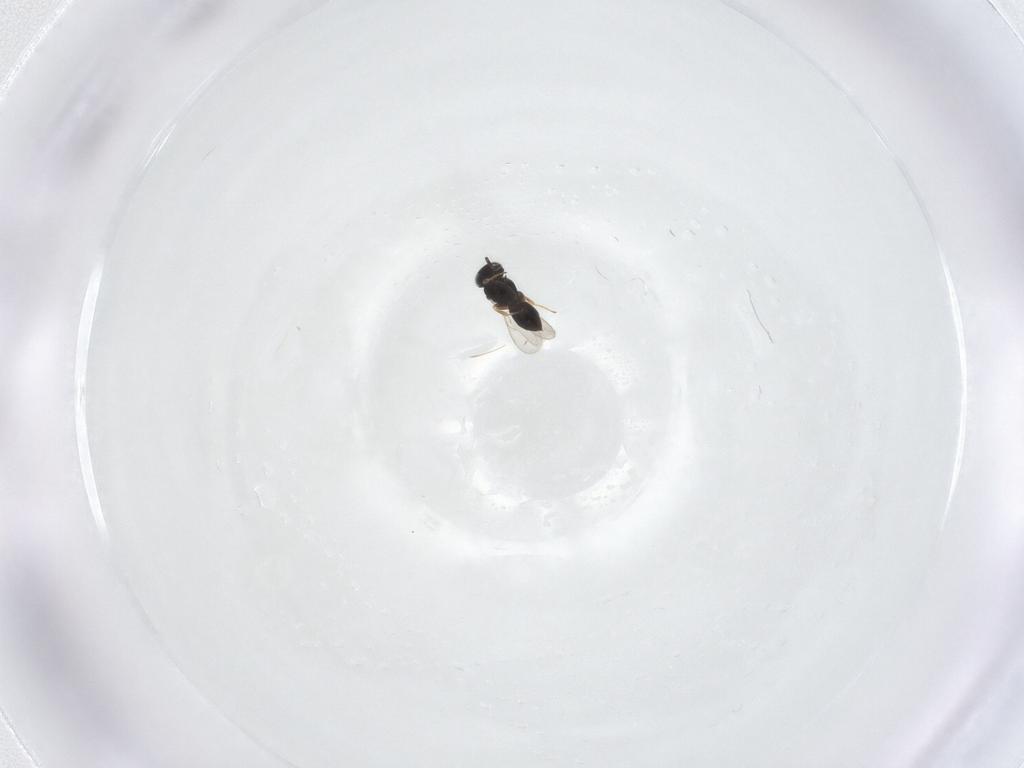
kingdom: Animalia
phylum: Arthropoda
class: Insecta
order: Hymenoptera
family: Scelionidae
